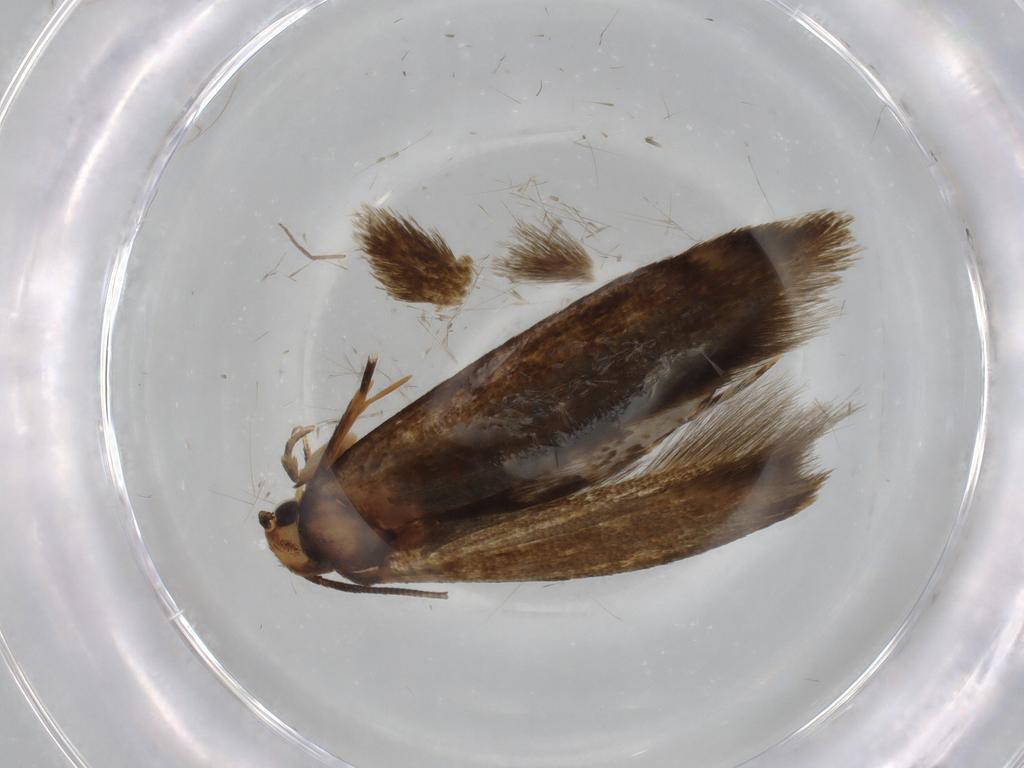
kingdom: Animalia
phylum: Arthropoda
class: Insecta
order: Lepidoptera
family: Tineidae
